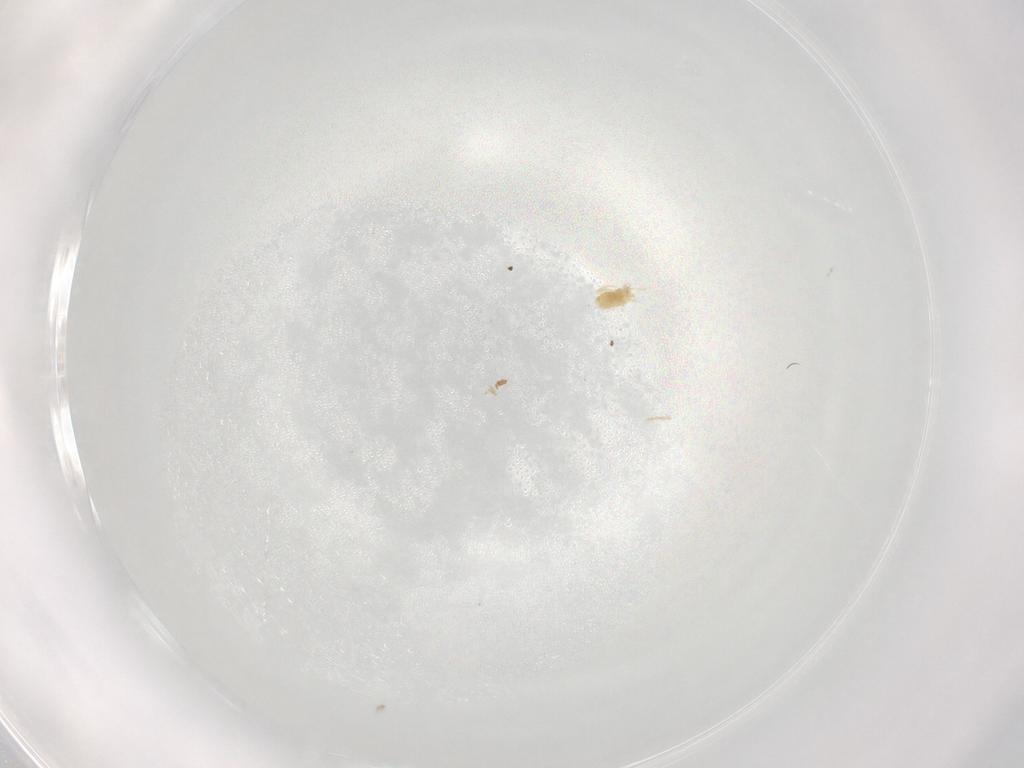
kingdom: Animalia
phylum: Arthropoda
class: Arachnida
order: Trombidiformes
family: Eupodidae
